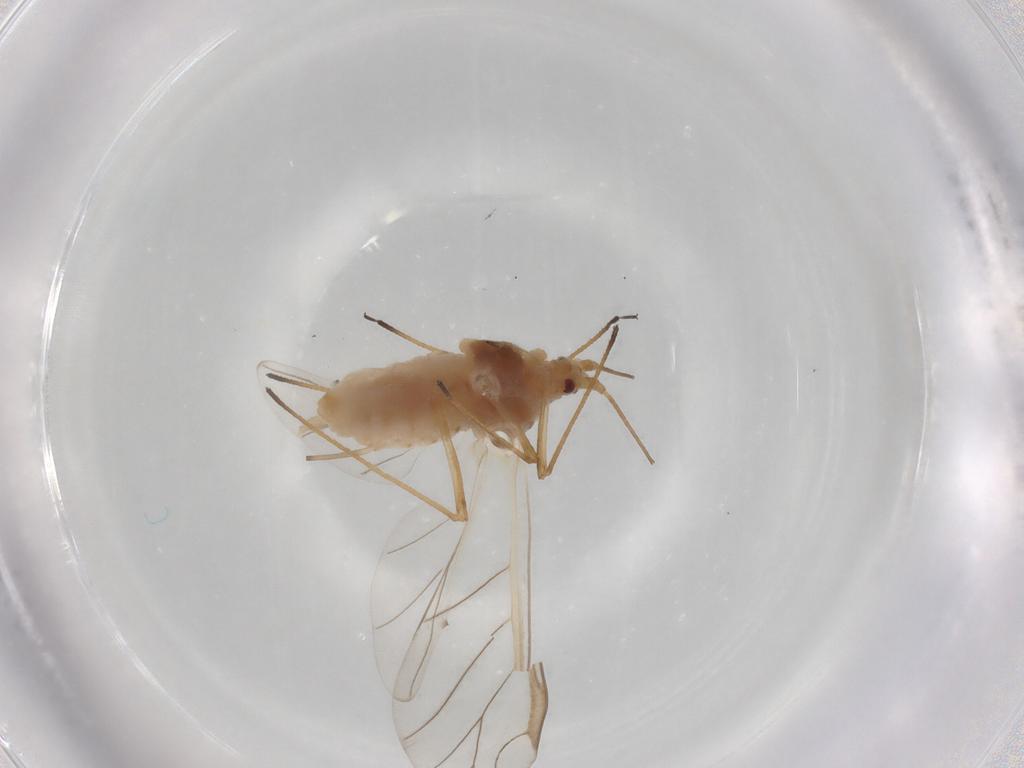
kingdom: Animalia
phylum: Arthropoda
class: Insecta
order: Hemiptera
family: Aphididae
